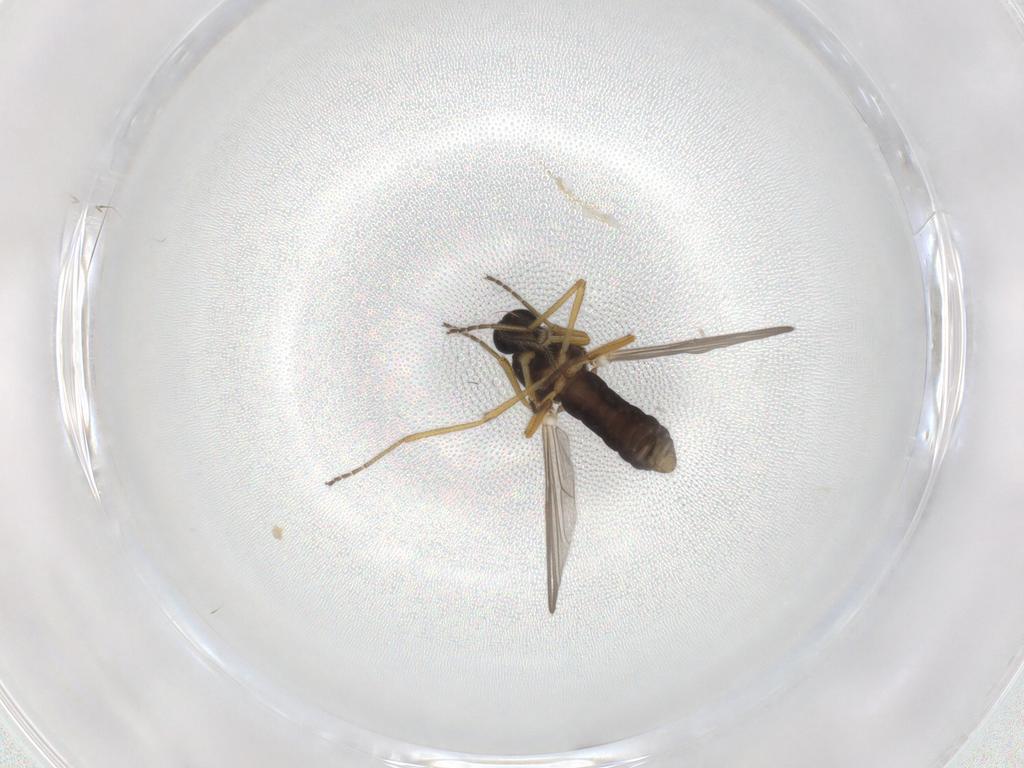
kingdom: Animalia
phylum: Arthropoda
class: Insecta
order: Diptera
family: Ceratopogonidae
